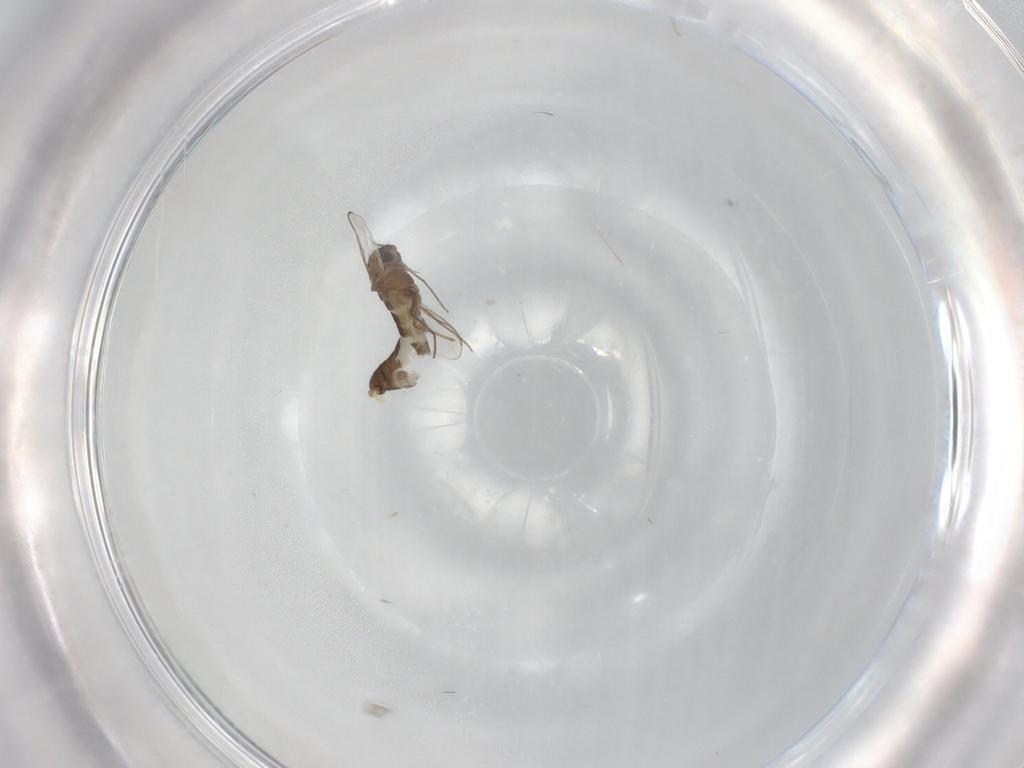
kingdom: Animalia
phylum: Arthropoda
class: Insecta
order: Diptera
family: Chironomidae
